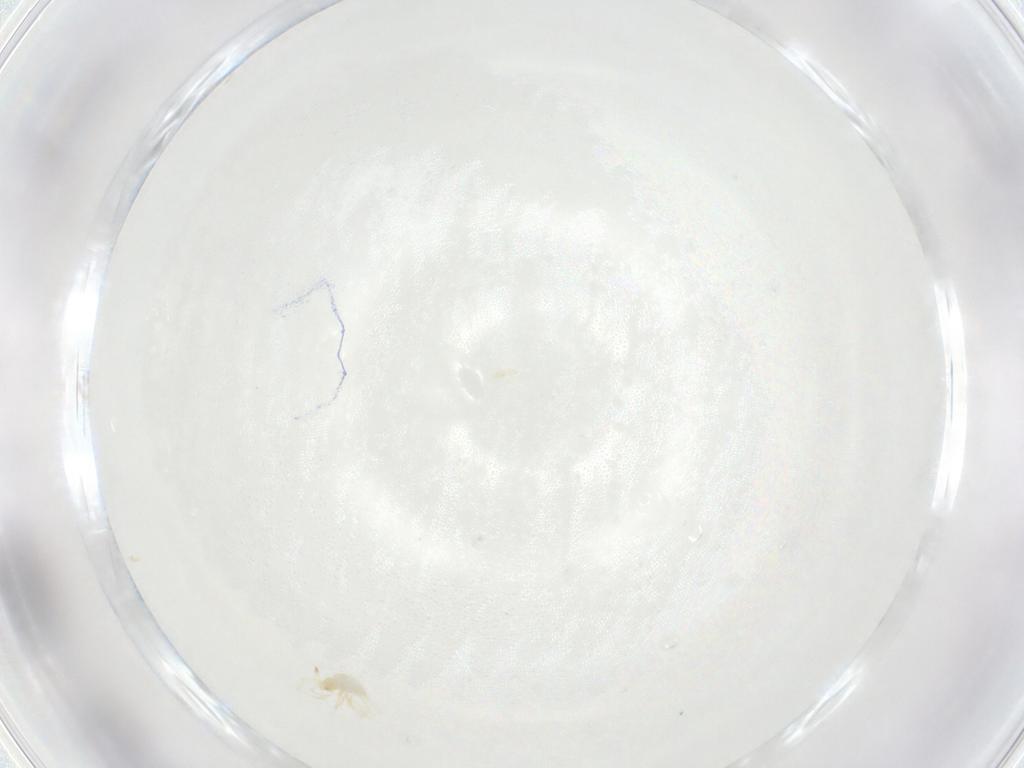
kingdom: Animalia
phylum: Arthropoda
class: Arachnida
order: Trombidiformes
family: Erythraeidae
